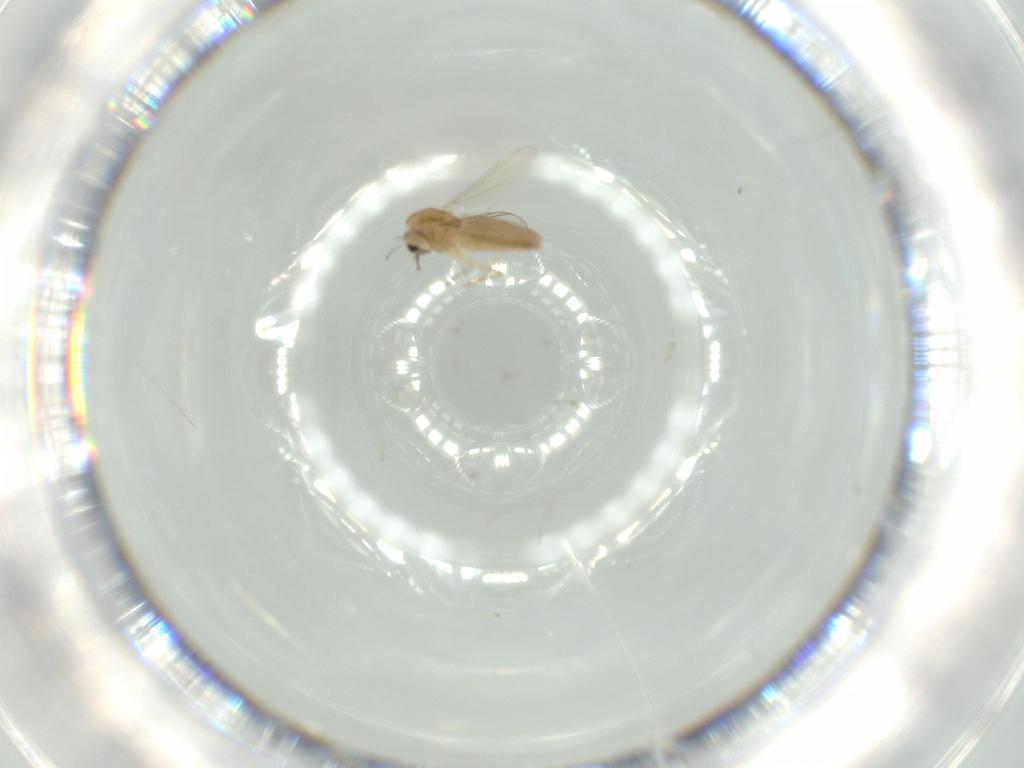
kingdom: Animalia
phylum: Arthropoda
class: Insecta
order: Diptera
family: Chironomidae
